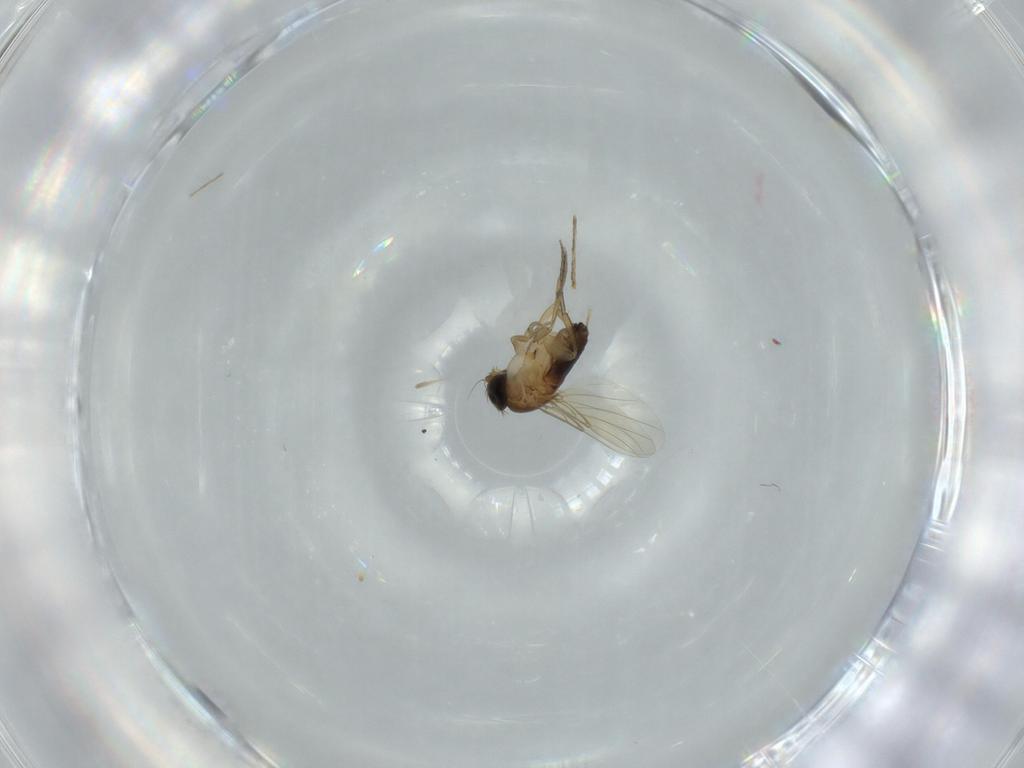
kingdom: Animalia
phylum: Arthropoda
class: Insecta
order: Diptera
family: Phoridae
